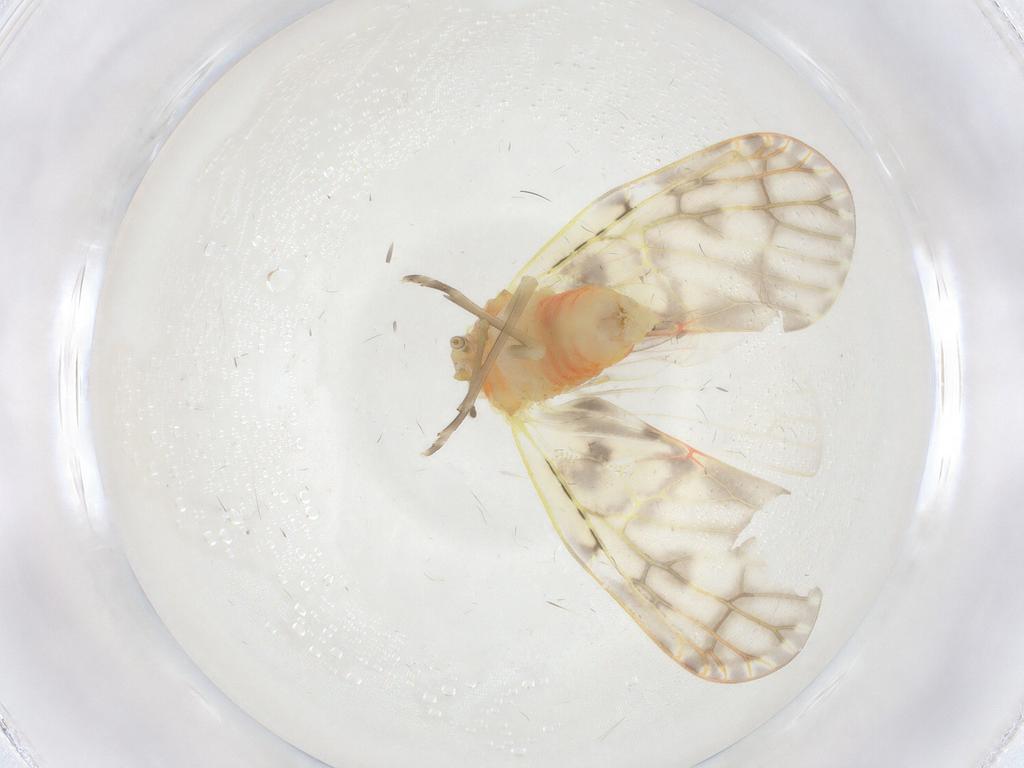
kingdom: Animalia
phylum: Arthropoda
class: Insecta
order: Hemiptera
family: Derbidae
